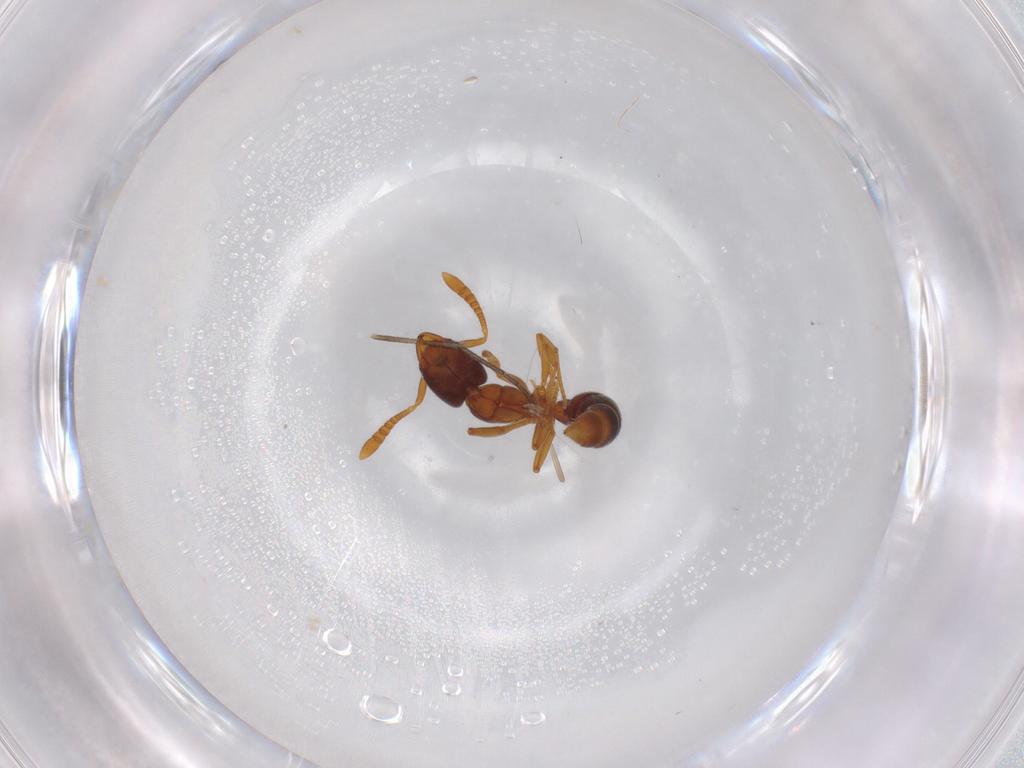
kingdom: Animalia
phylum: Arthropoda
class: Insecta
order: Hymenoptera
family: Formicidae
